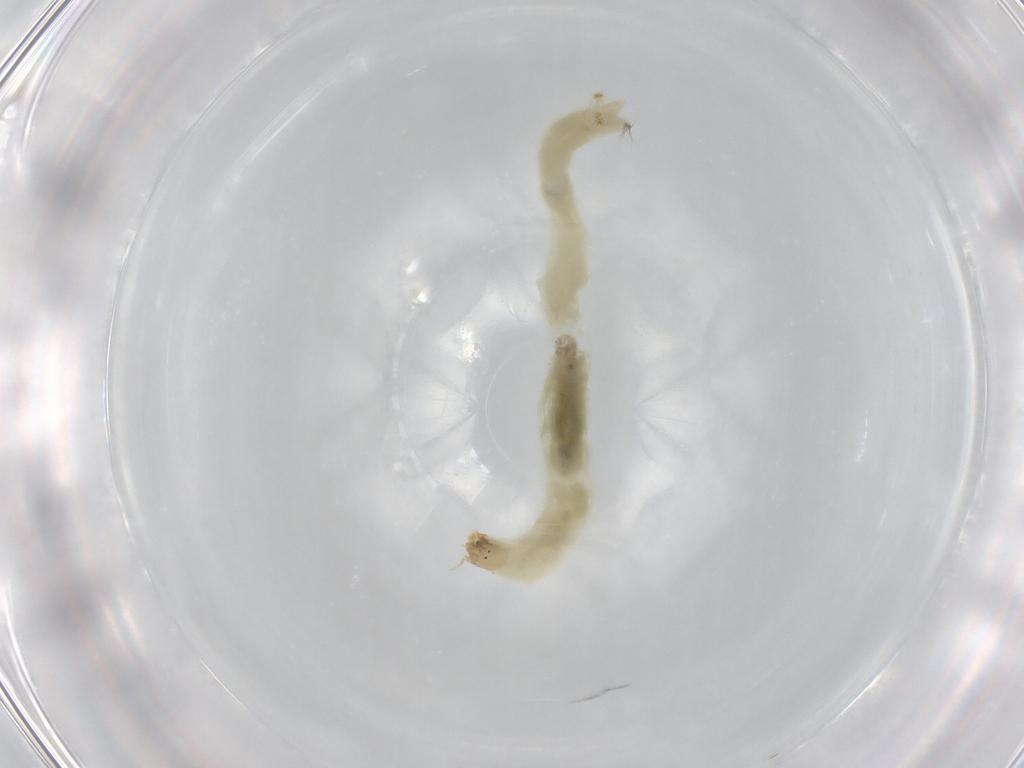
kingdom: Animalia
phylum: Arthropoda
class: Insecta
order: Diptera
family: Chironomidae
